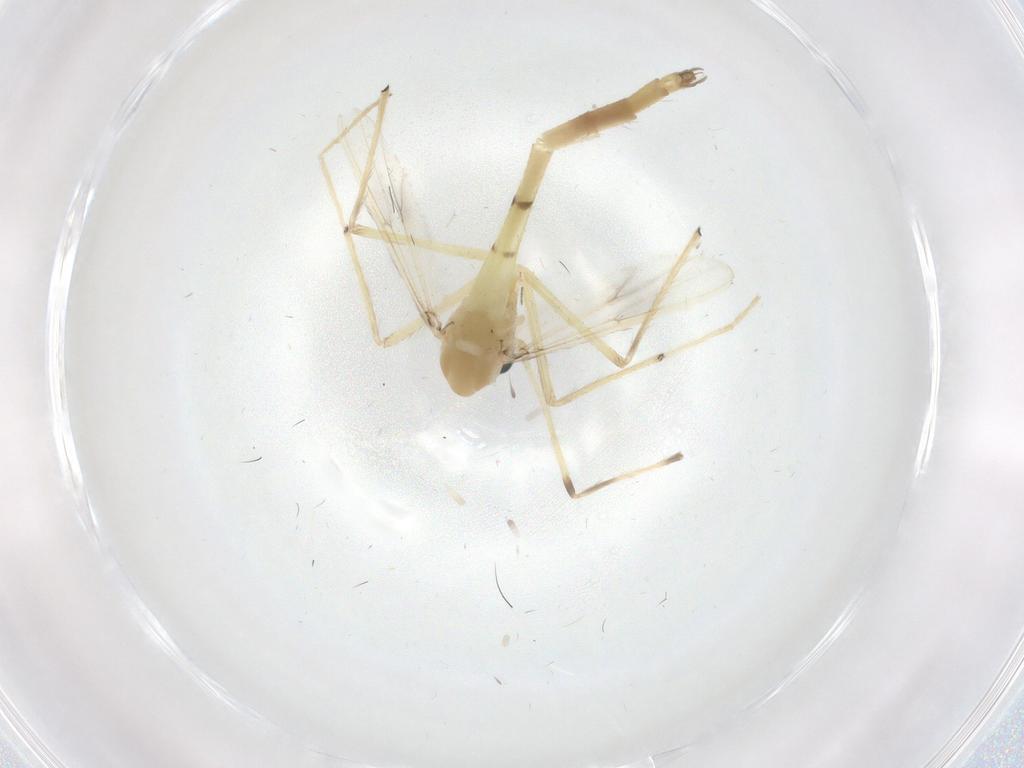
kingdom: Animalia
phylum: Arthropoda
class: Insecta
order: Diptera
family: Chironomidae
